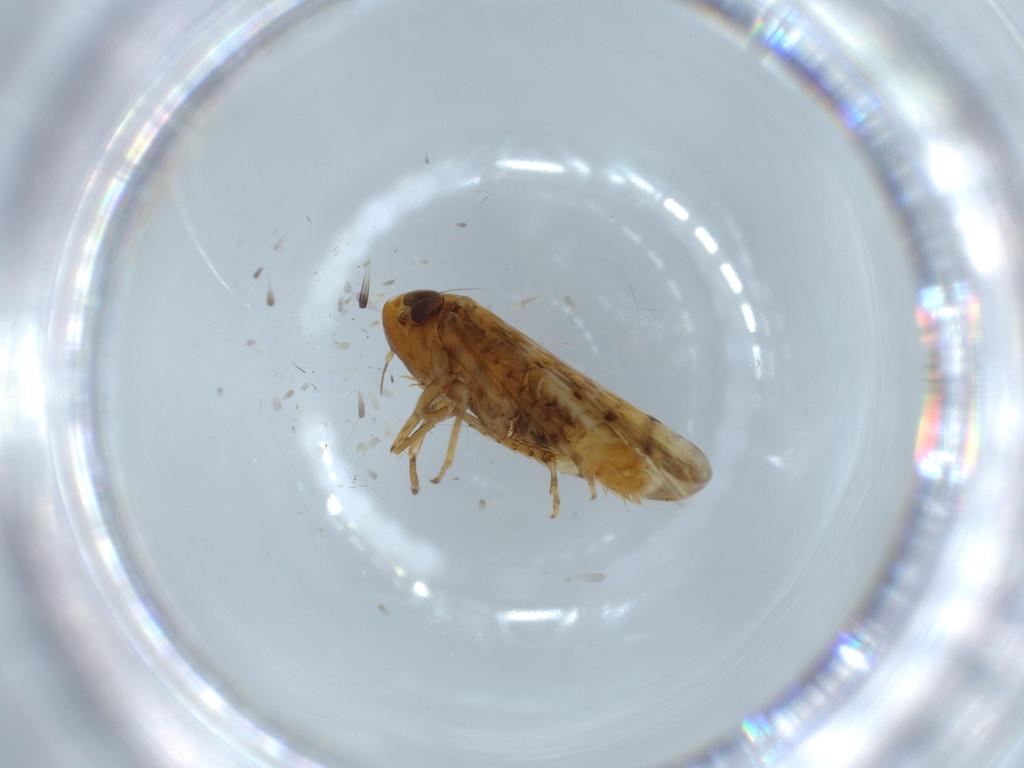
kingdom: Animalia
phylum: Arthropoda
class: Insecta
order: Hemiptera
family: Cicadellidae
